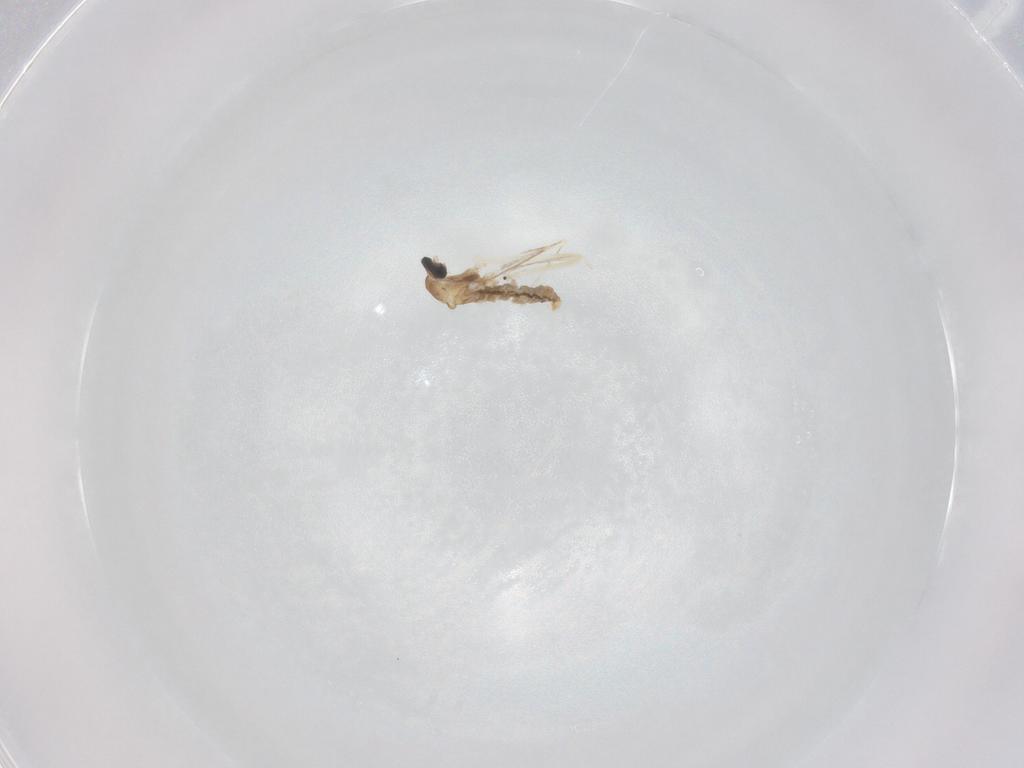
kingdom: Animalia
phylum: Arthropoda
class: Insecta
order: Diptera
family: Cecidomyiidae
